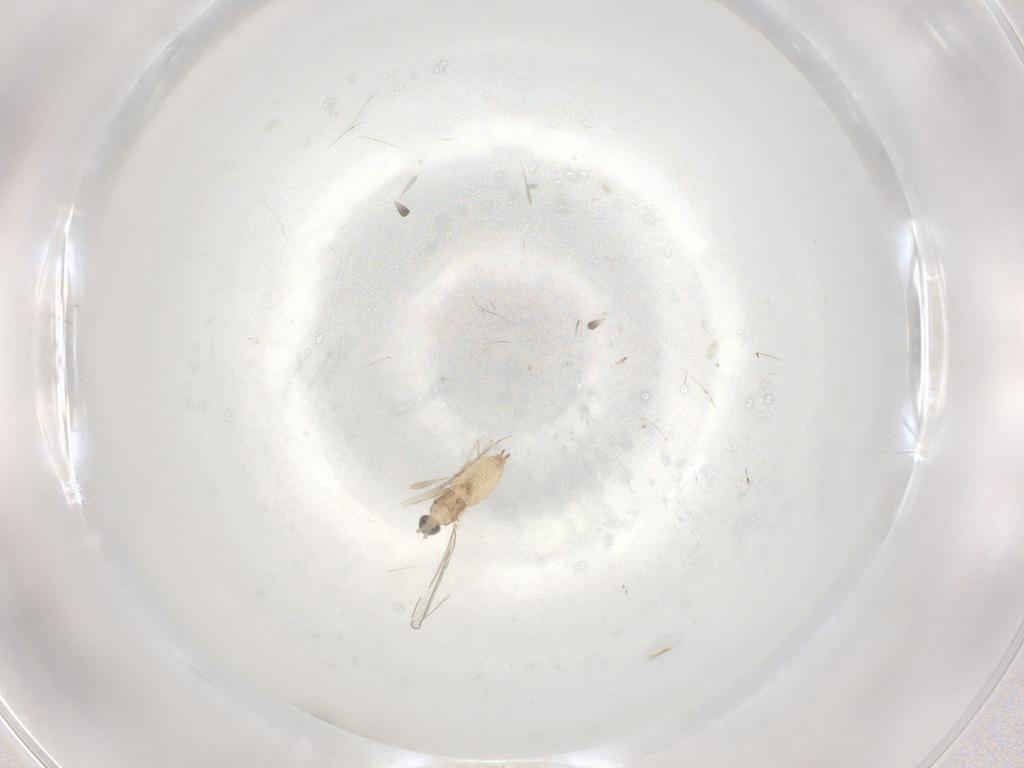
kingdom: Animalia
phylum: Arthropoda
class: Insecta
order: Diptera
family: Cecidomyiidae
